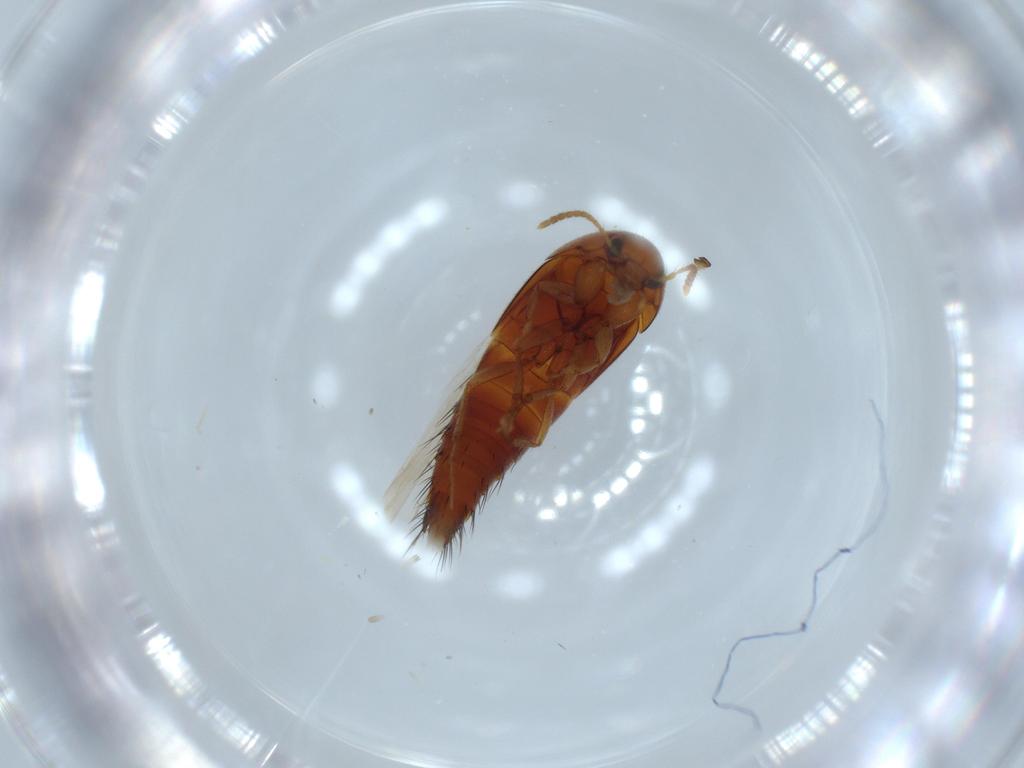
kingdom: Animalia
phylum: Arthropoda
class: Insecta
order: Coleoptera
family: Staphylinidae
